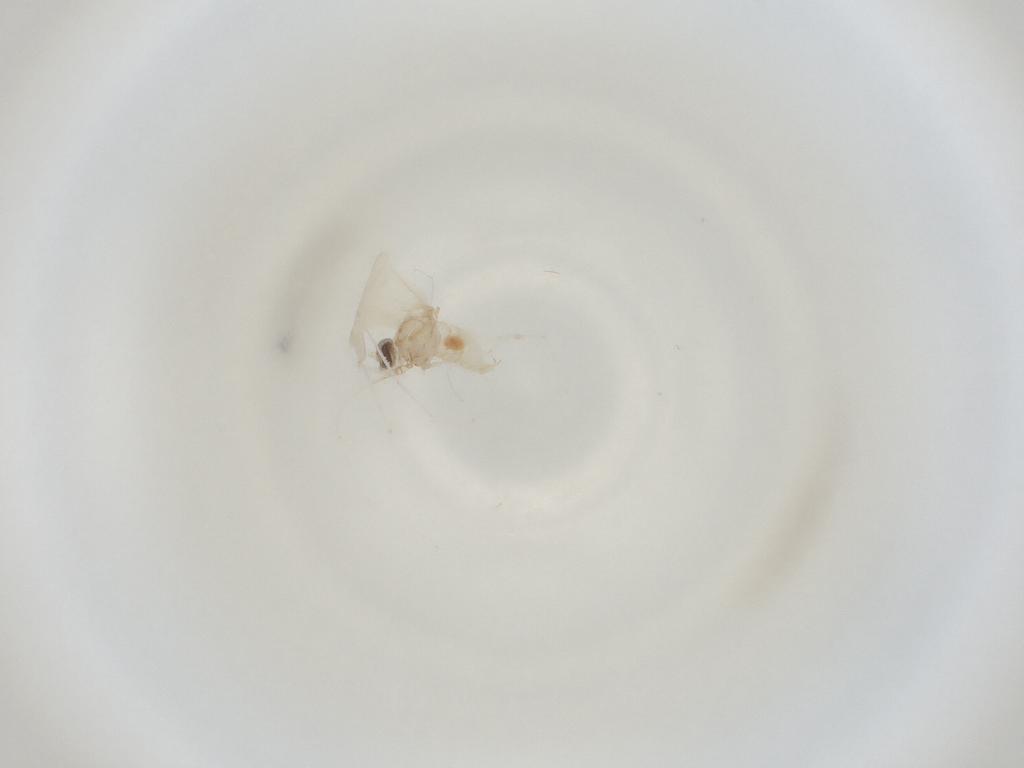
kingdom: Animalia
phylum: Arthropoda
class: Insecta
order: Diptera
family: Cecidomyiidae
